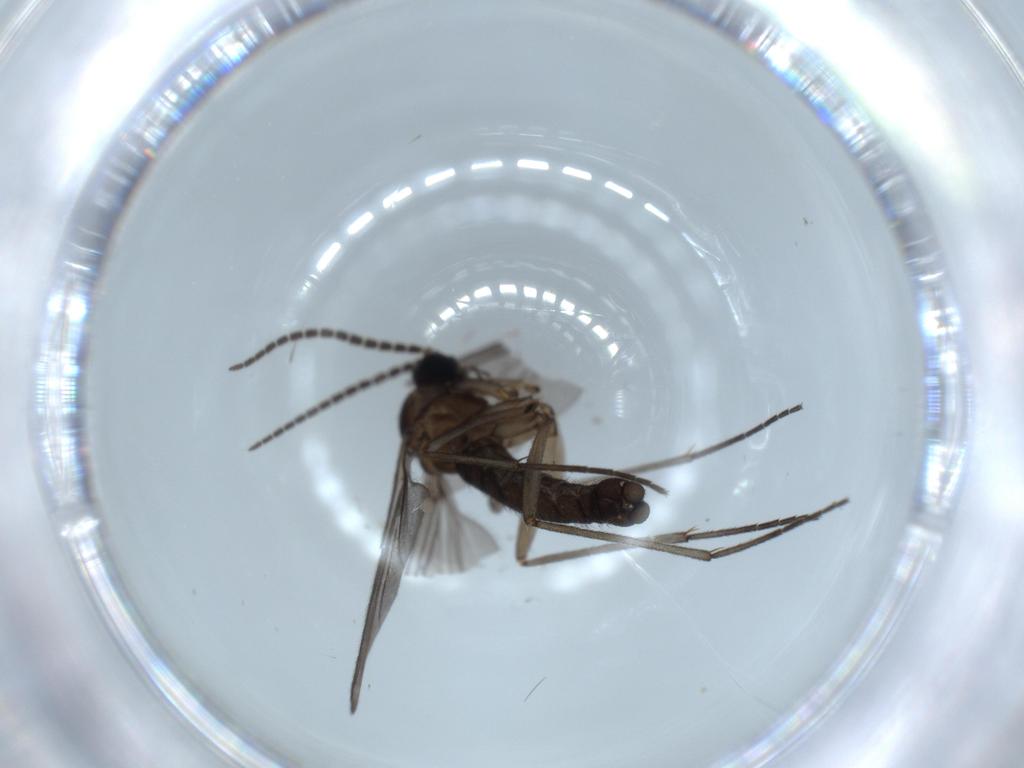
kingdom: Animalia
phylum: Arthropoda
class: Insecta
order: Diptera
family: Sciaridae
